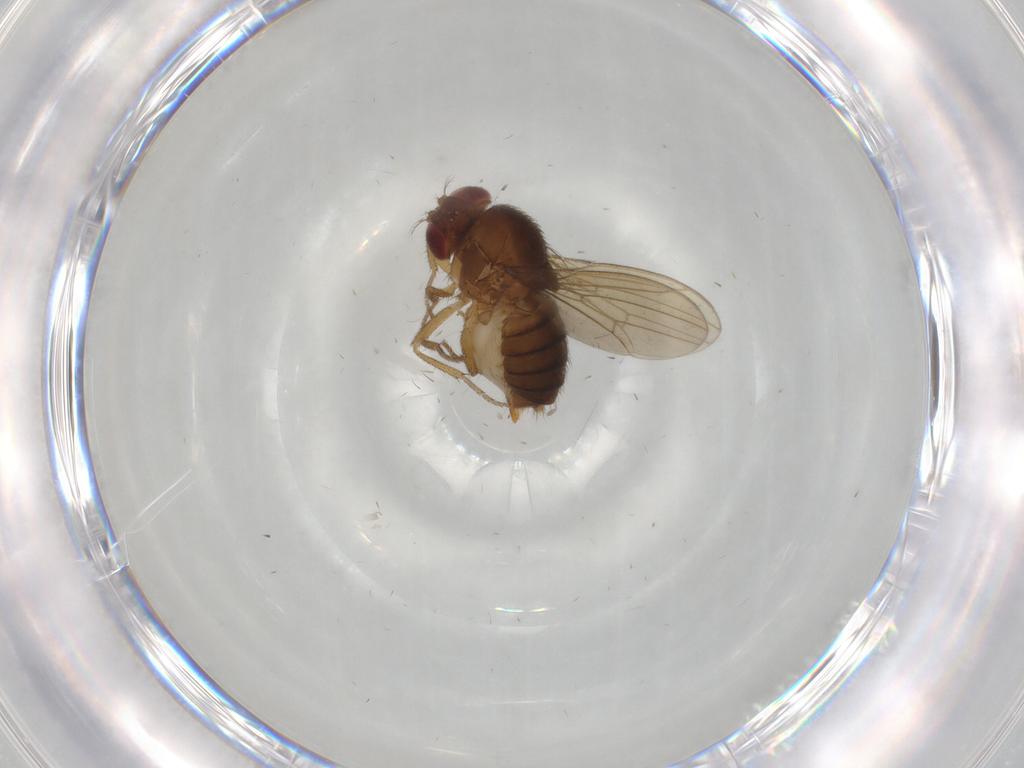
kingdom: Animalia
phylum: Arthropoda
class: Insecta
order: Diptera
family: Drosophilidae
